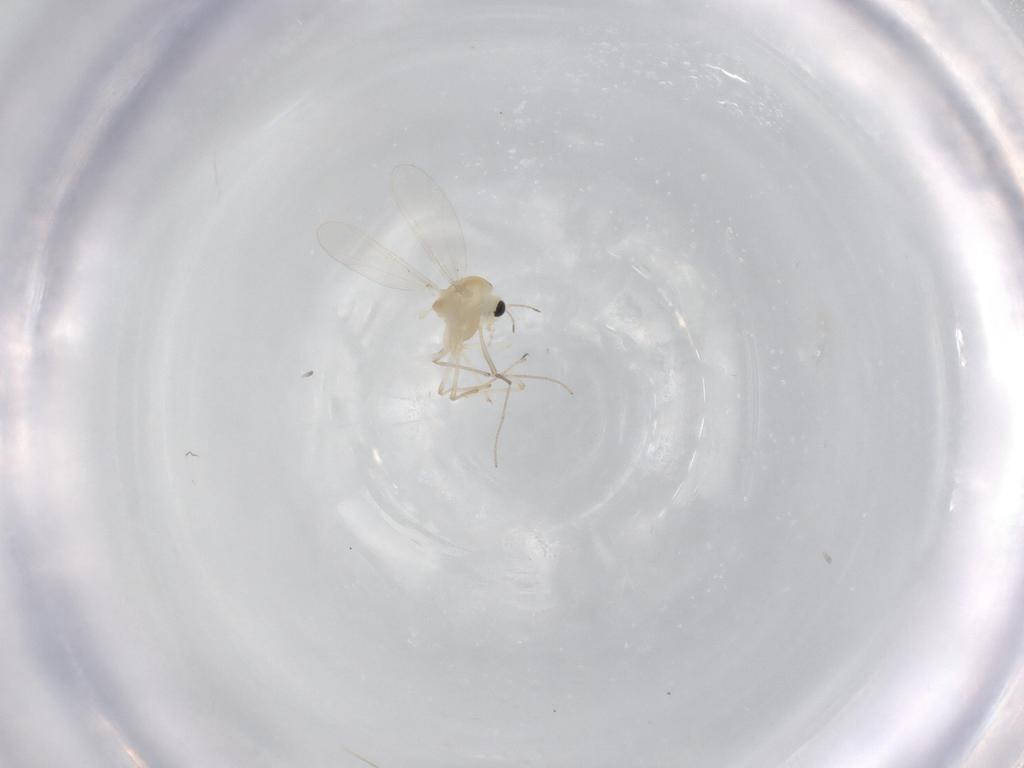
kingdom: Animalia
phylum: Arthropoda
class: Insecta
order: Diptera
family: Chironomidae
